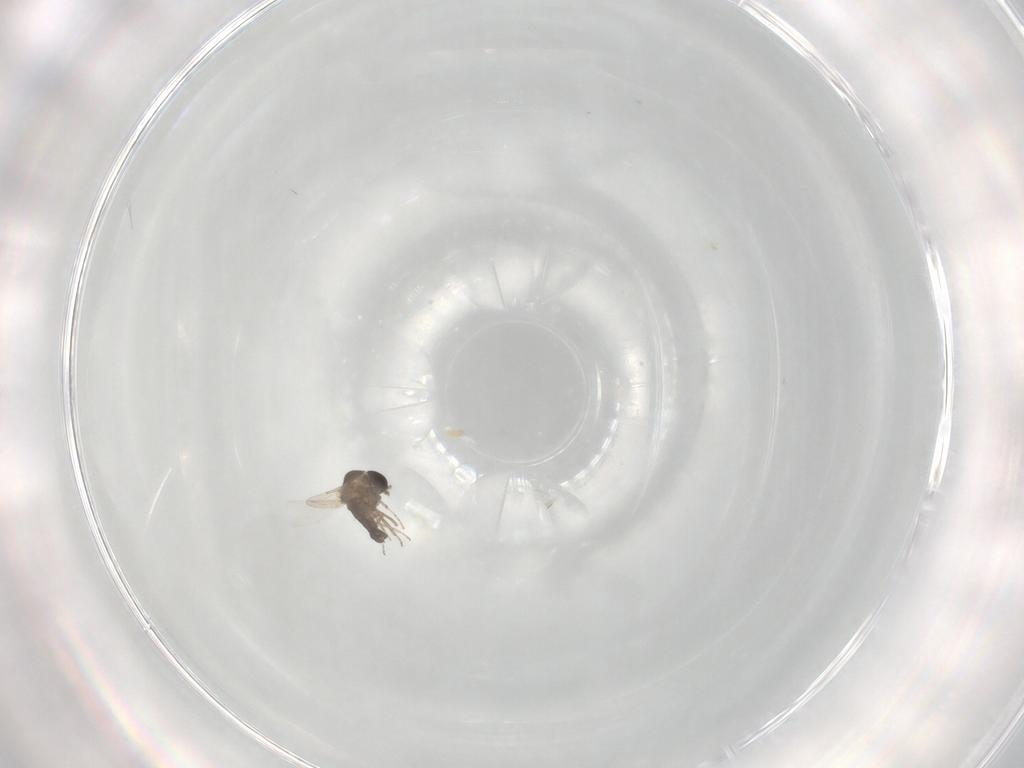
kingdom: Animalia
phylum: Arthropoda
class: Insecta
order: Diptera
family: Ceratopogonidae
